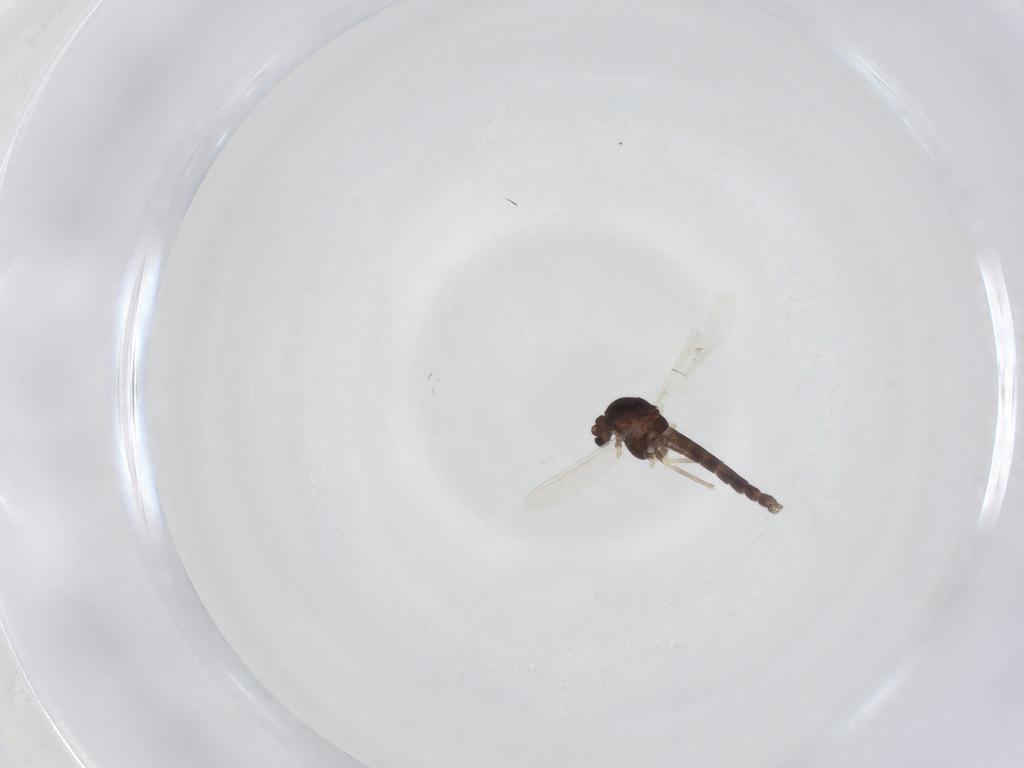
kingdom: Animalia
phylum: Arthropoda
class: Insecta
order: Diptera
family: Chironomidae
